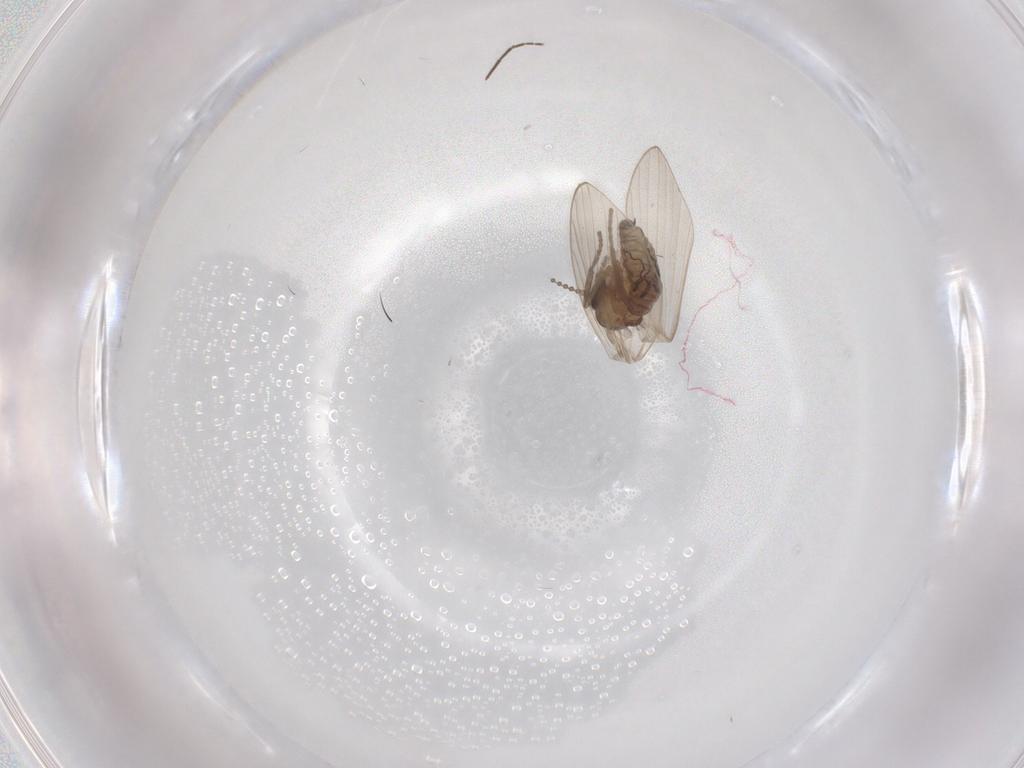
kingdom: Animalia
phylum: Arthropoda
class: Insecta
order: Diptera
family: Psychodidae
